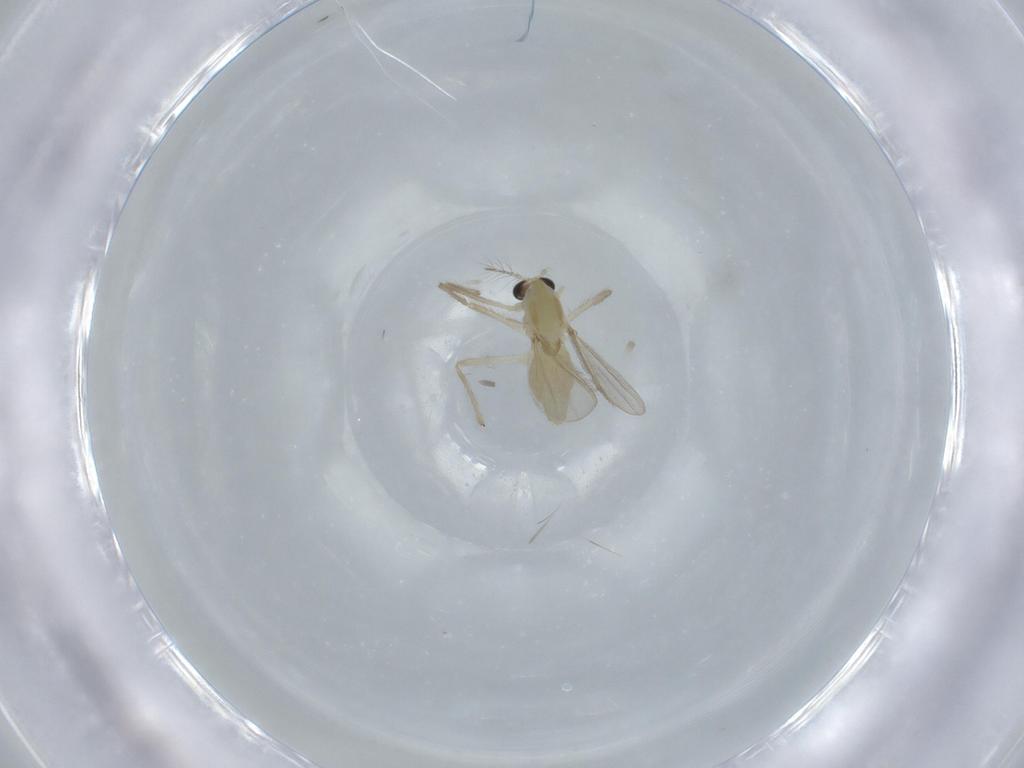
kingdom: Animalia
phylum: Arthropoda
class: Insecta
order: Diptera
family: Chironomidae
